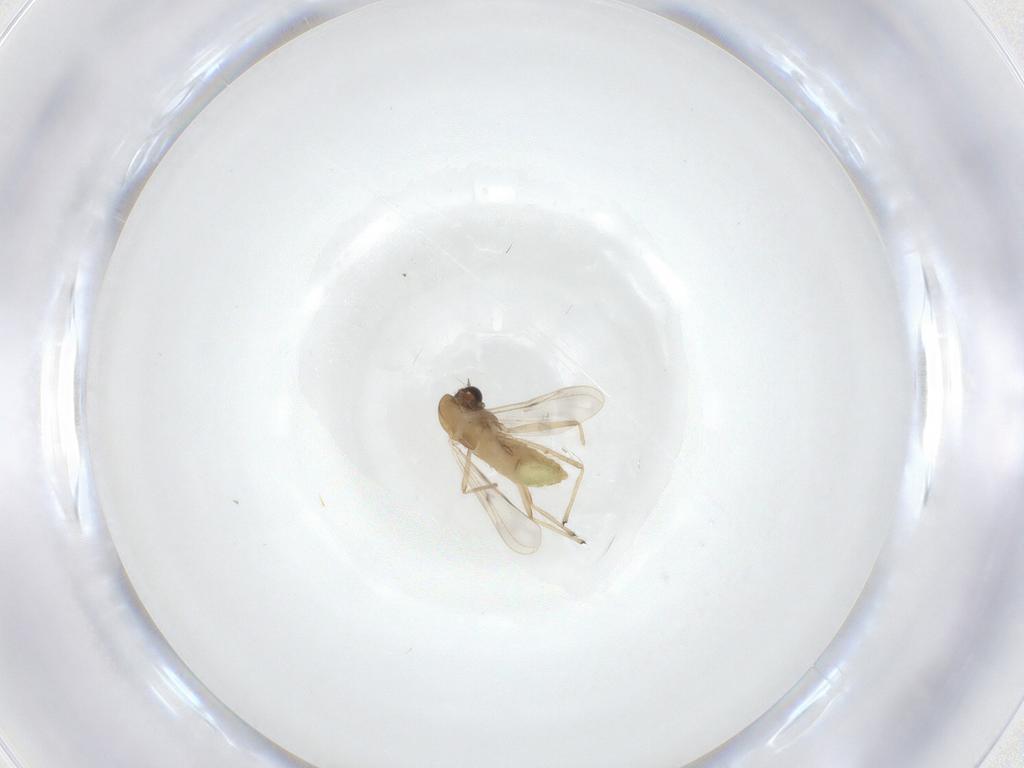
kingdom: Animalia
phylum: Arthropoda
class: Insecta
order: Diptera
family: Chironomidae
